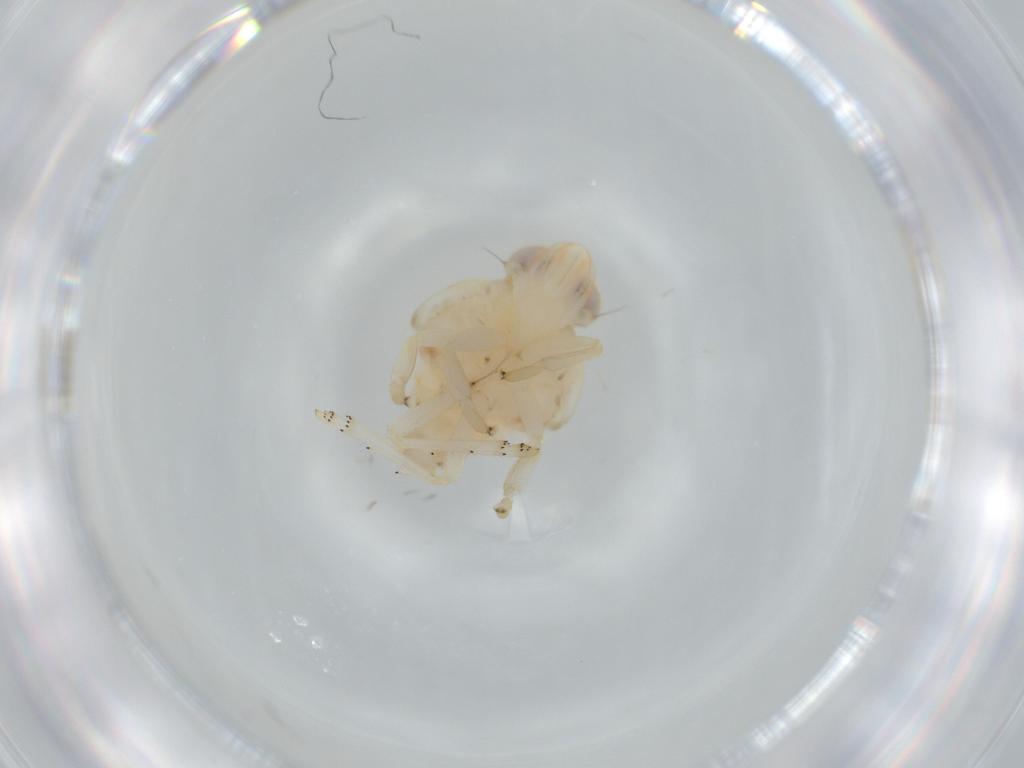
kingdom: Animalia
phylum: Arthropoda
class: Insecta
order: Hemiptera
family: Nogodinidae
